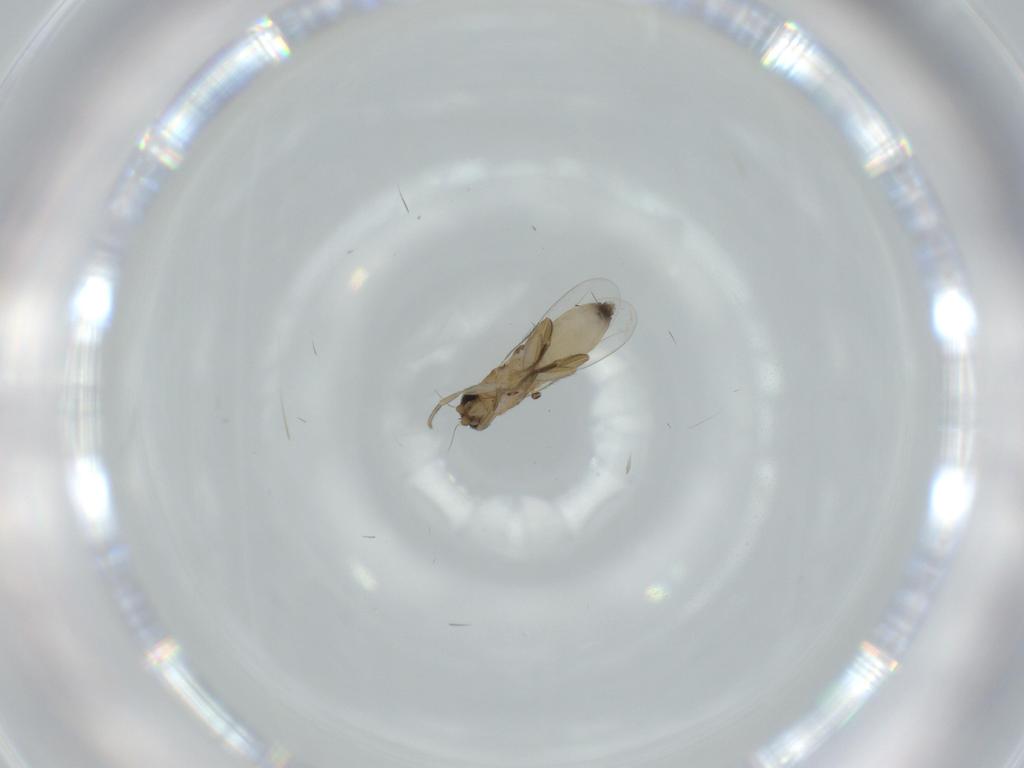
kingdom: Animalia
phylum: Arthropoda
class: Insecta
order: Diptera
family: Phoridae
